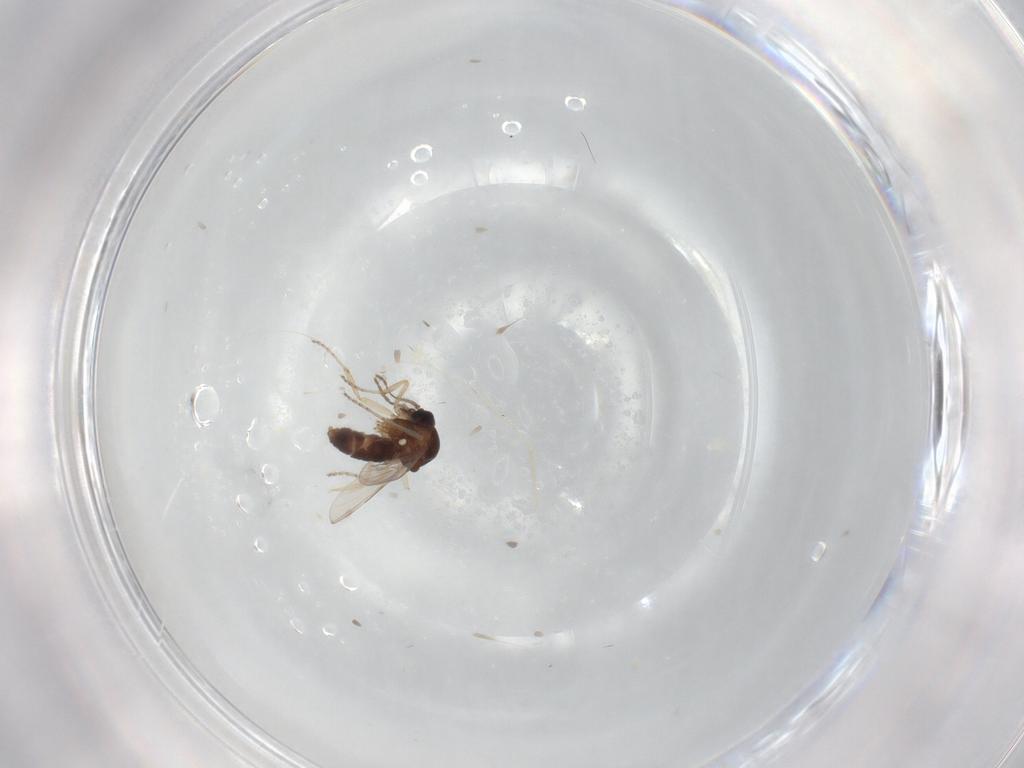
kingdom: Animalia
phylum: Arthropoda
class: Insecta
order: Diptera
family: Ceratopogonidae
